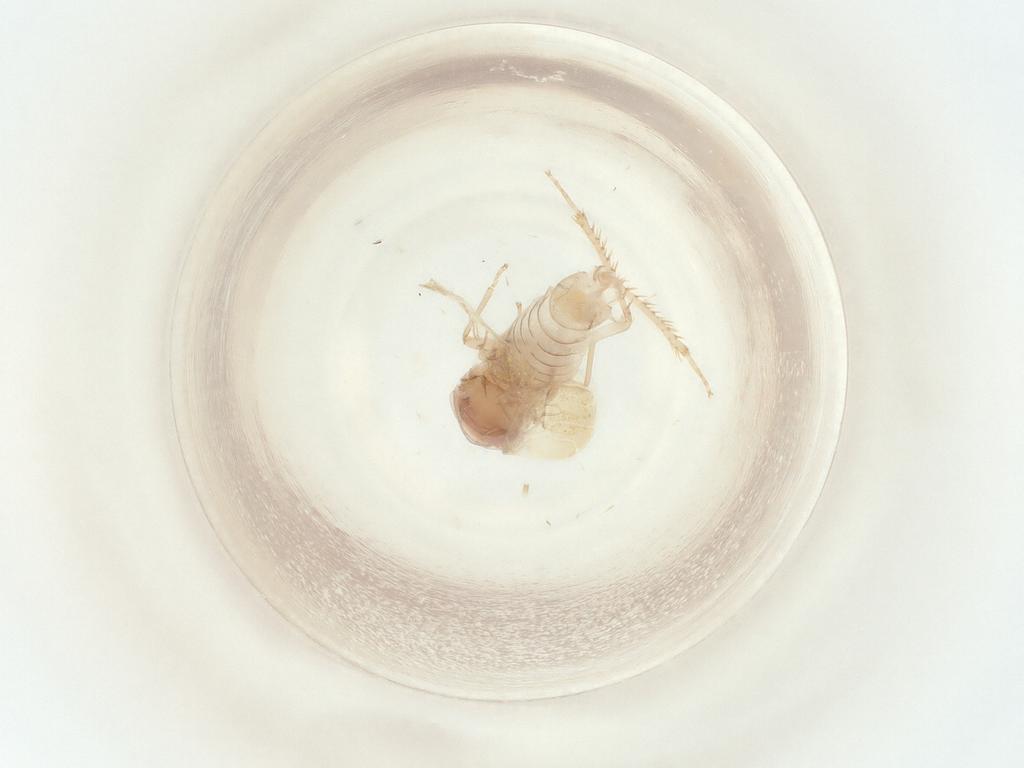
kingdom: Animalia
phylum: Arthropoda
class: Insecta
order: Hemiptera
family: Cicadellidae
